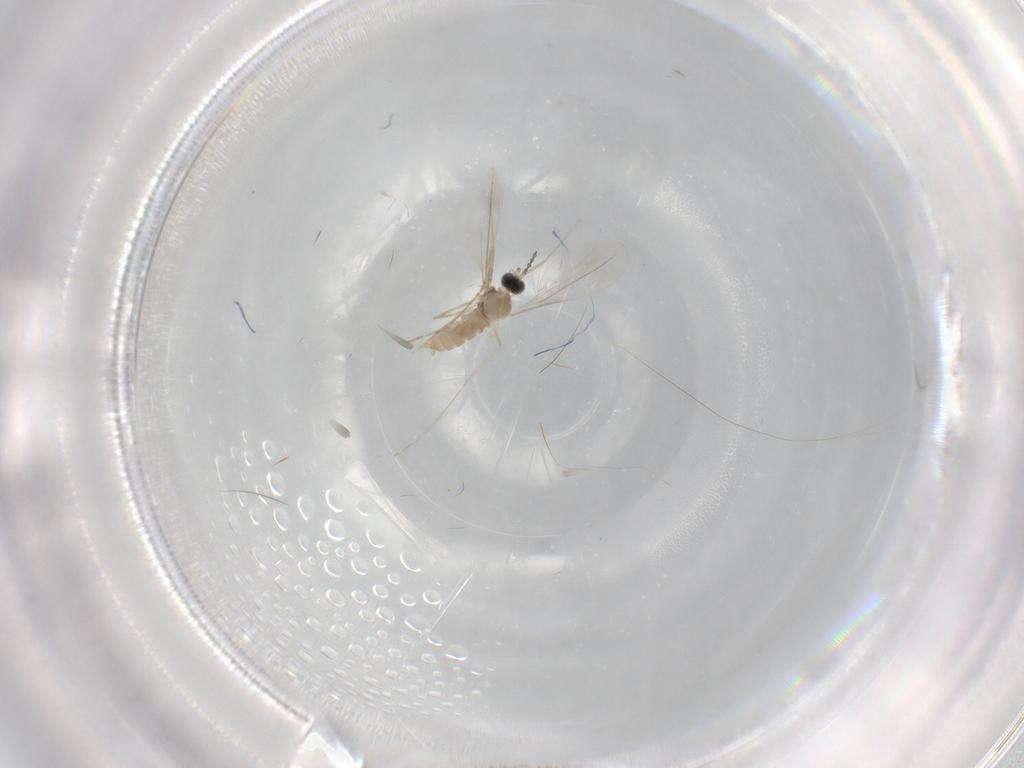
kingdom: Animalia
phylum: Arthropoda
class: Insecta
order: Diptera
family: Cecidomyiidae
